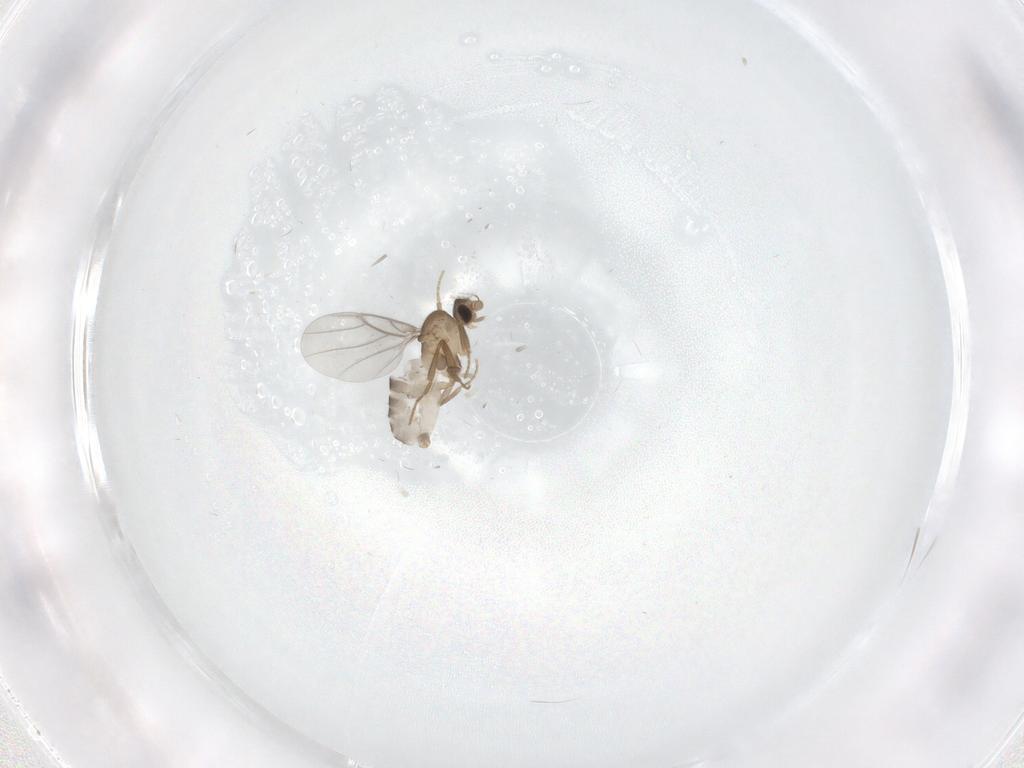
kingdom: Animalia
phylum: Arthropoda
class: Insecta
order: Diptera
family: Sciaridae
